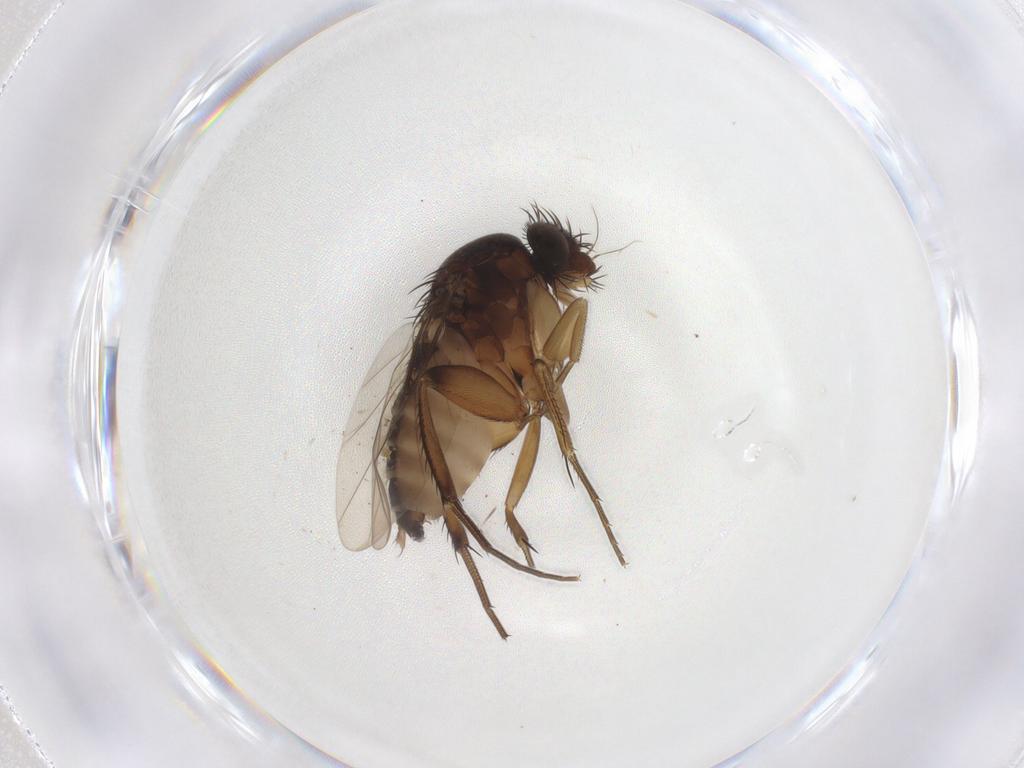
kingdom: Animalia
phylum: Arthropoda
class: Insecta
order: Diptera
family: Phoridae
